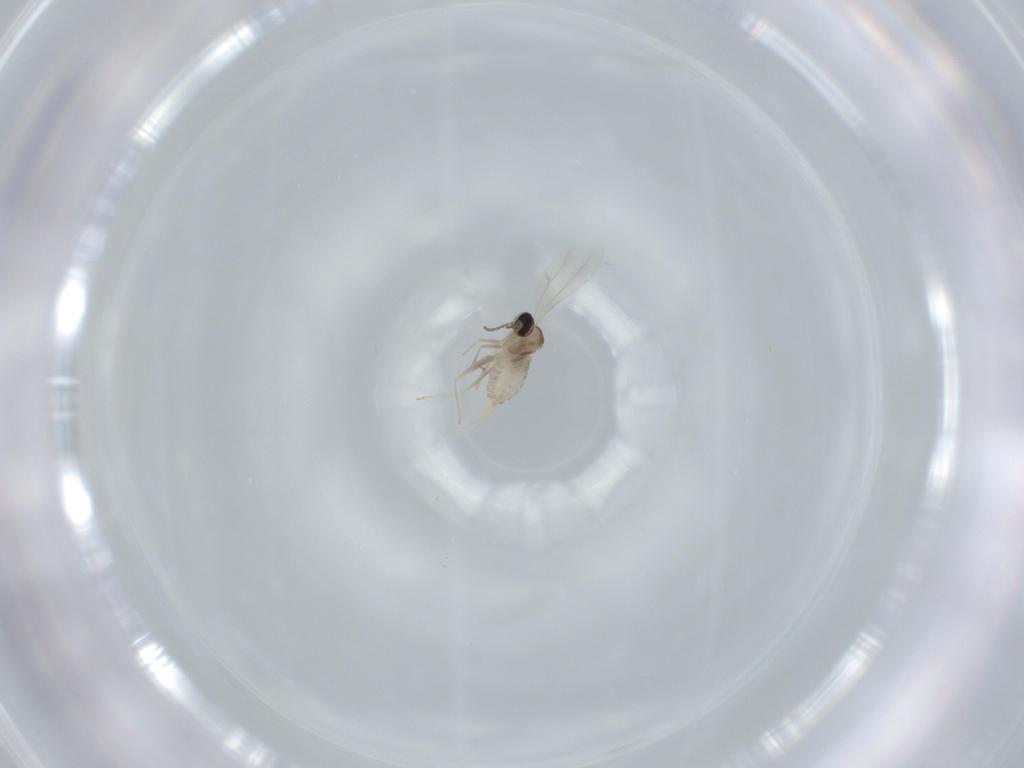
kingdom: Animalia
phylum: Arthropoda
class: Insecta
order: Diptera
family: Cecidomyiidae
